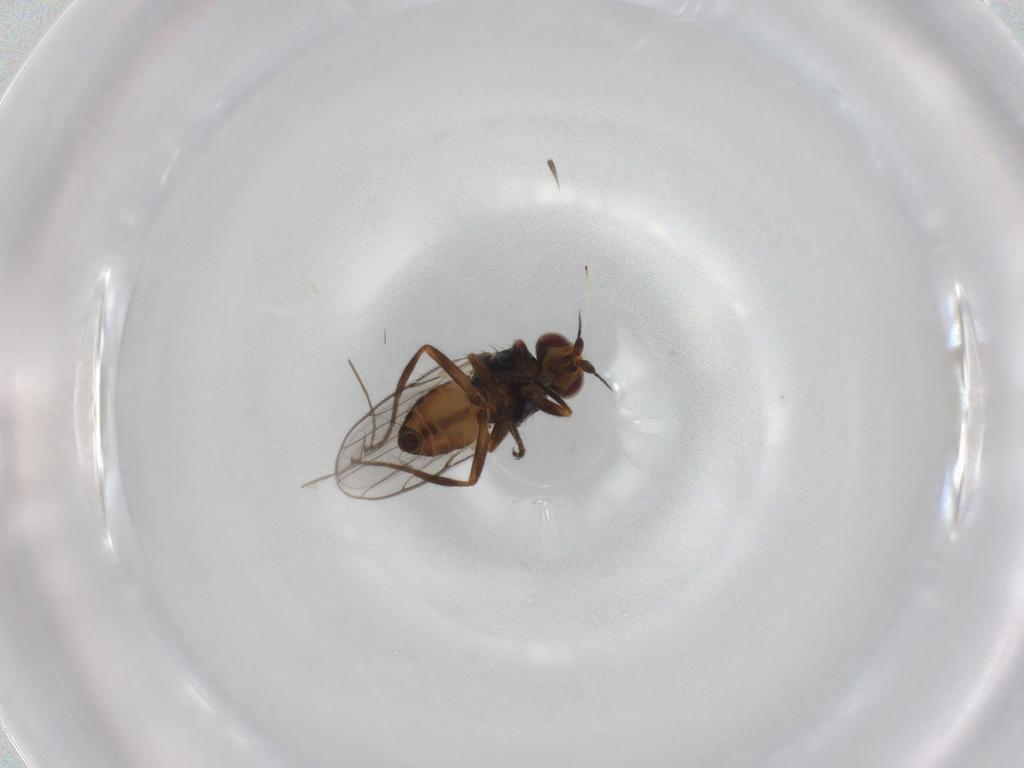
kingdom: Animalia
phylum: Arthropoda
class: Insecta
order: Diptera
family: Chloropidae
